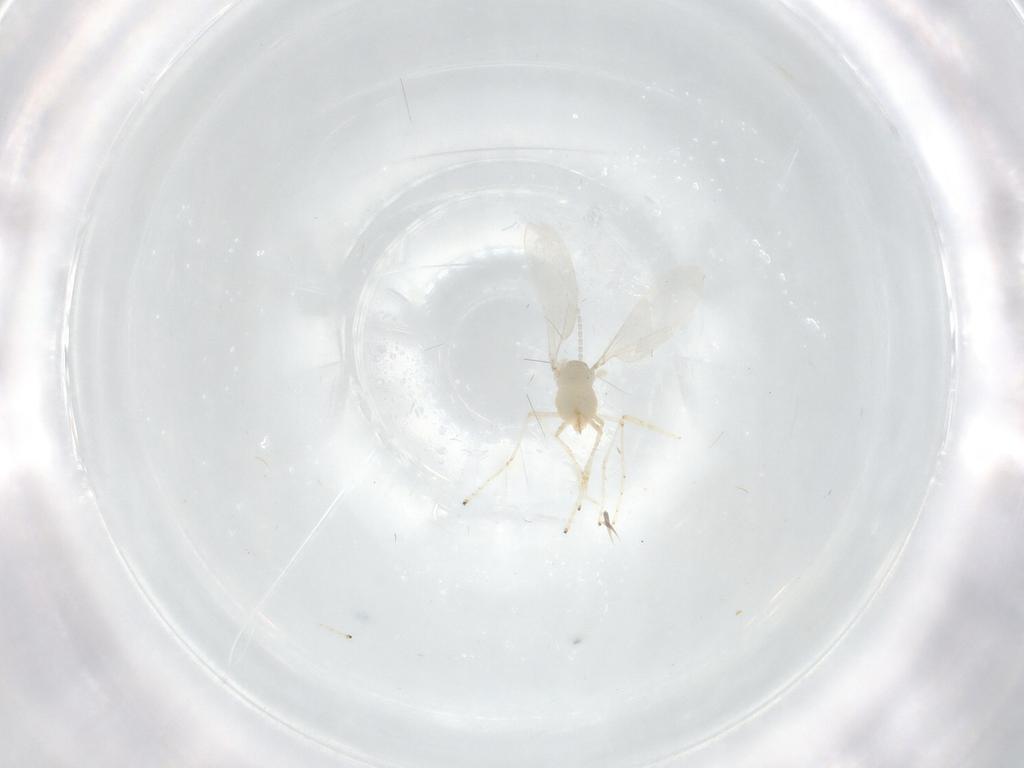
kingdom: Animalia
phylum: Arthropoda
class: Insecta
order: Diptera
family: Cecidomyiidae
